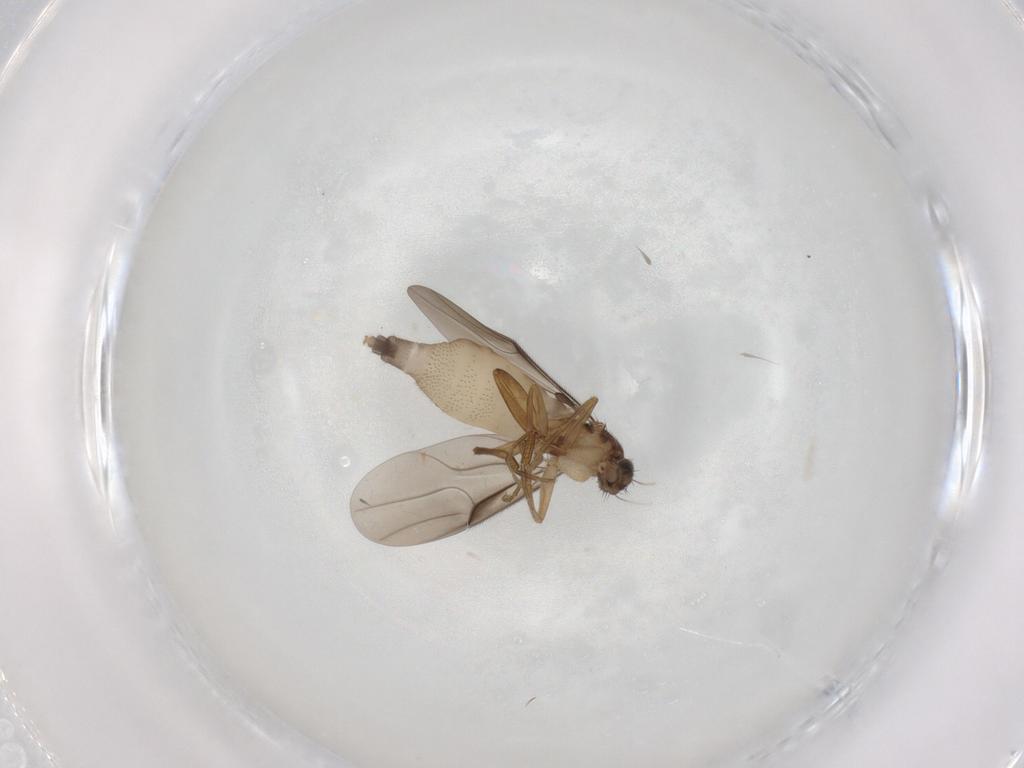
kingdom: Animalia
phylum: Arthropoda
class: Insecta
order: Diptera
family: Phoridae
